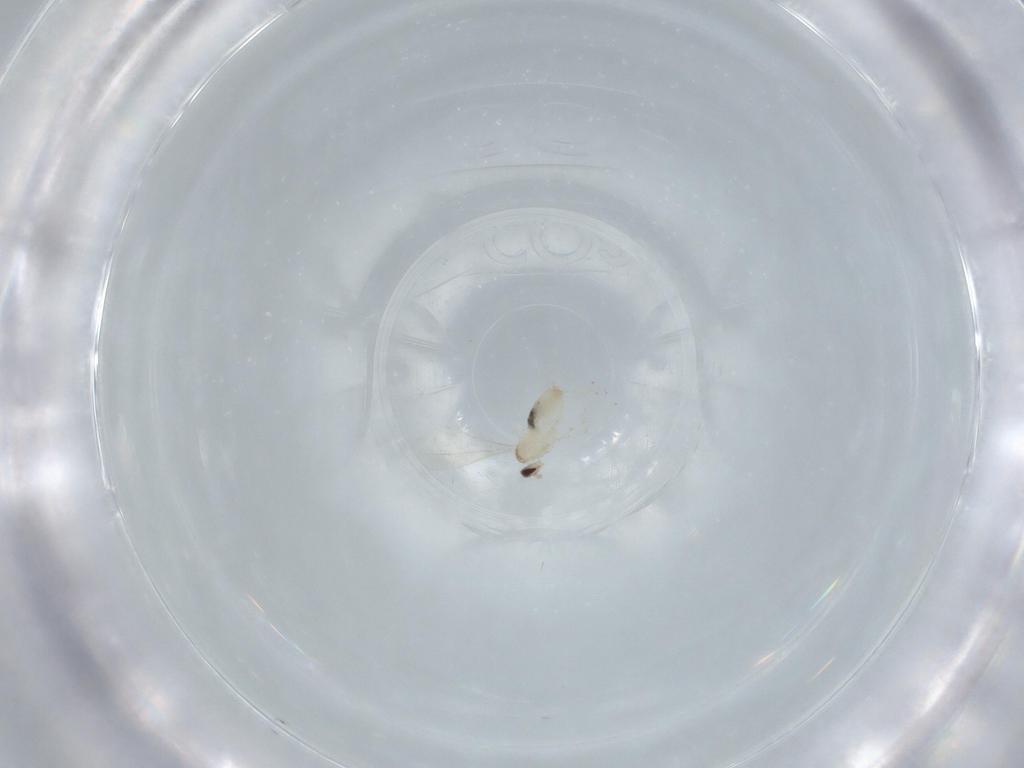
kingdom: Animalia
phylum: Arthropoda
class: Insecta
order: Diptera
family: Cecidomyiidae
